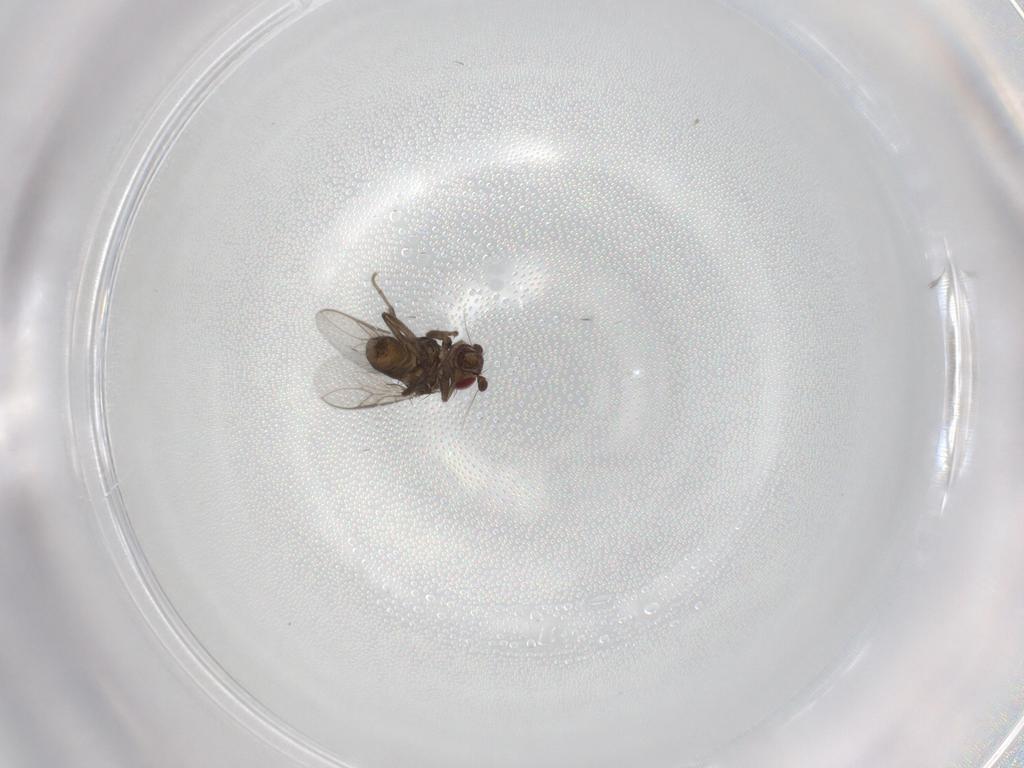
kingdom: Animalia
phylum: Arthropoda
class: Insecta
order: Diptera
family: Sphaeroceridae
